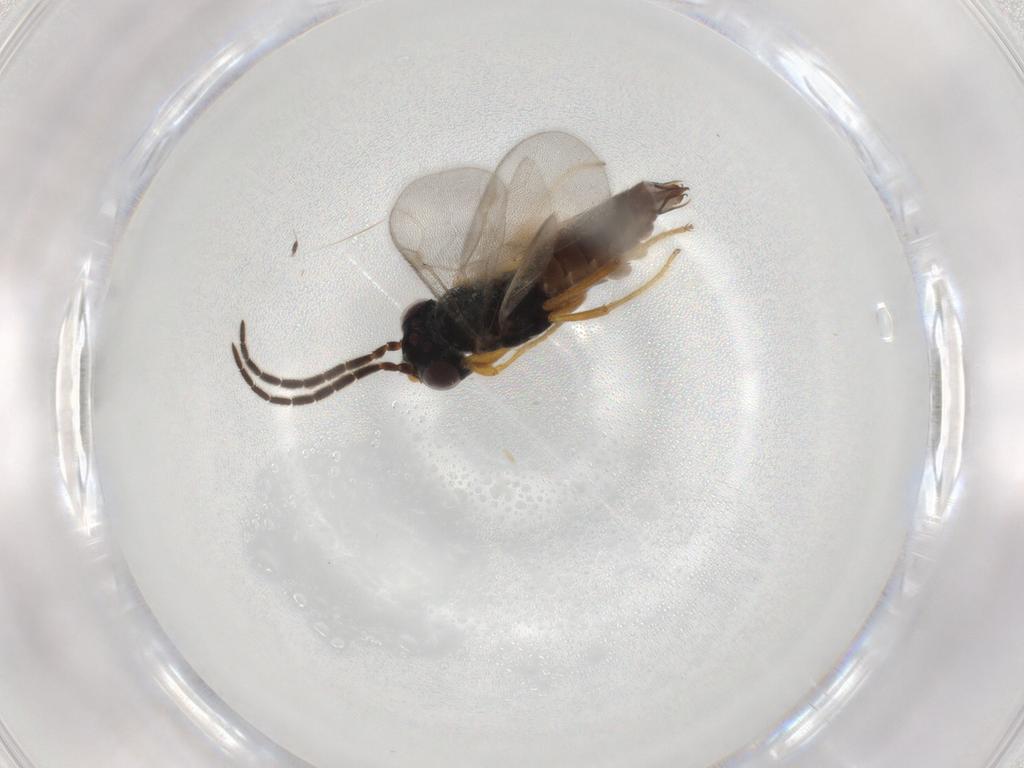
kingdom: Animalia
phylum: Arthropoda
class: Insecta
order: Hymenoptera
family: Dryinidae
